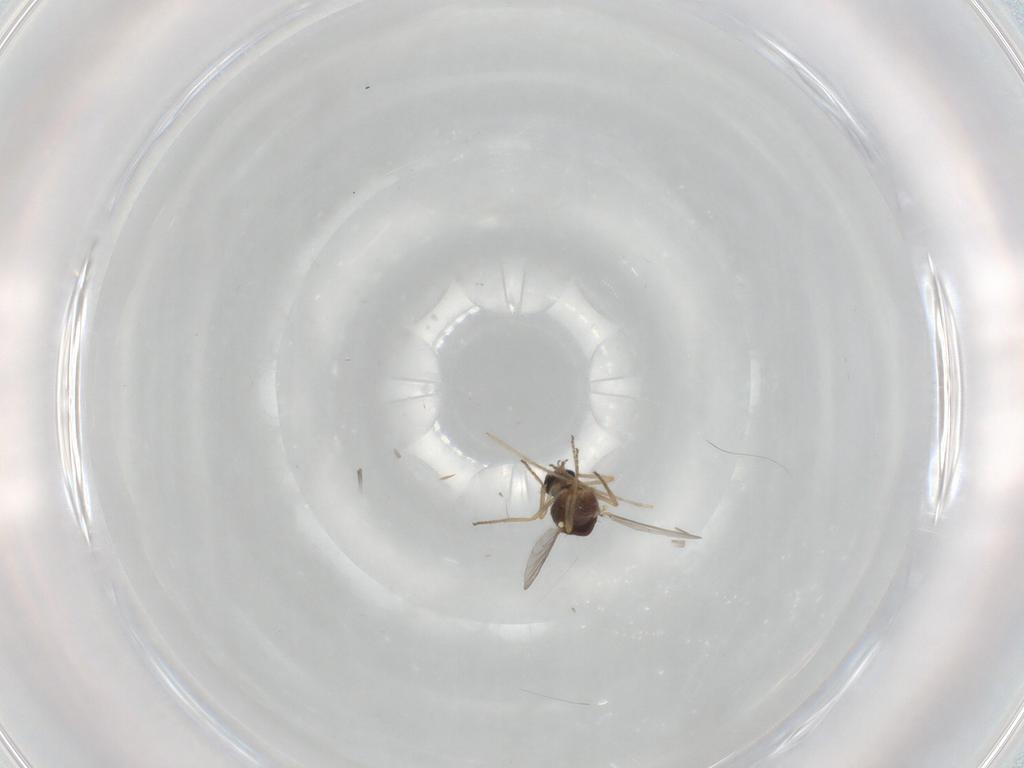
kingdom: Animalia
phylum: Arthropoda
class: Insecta
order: Diptera
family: Ceratopogonidae
